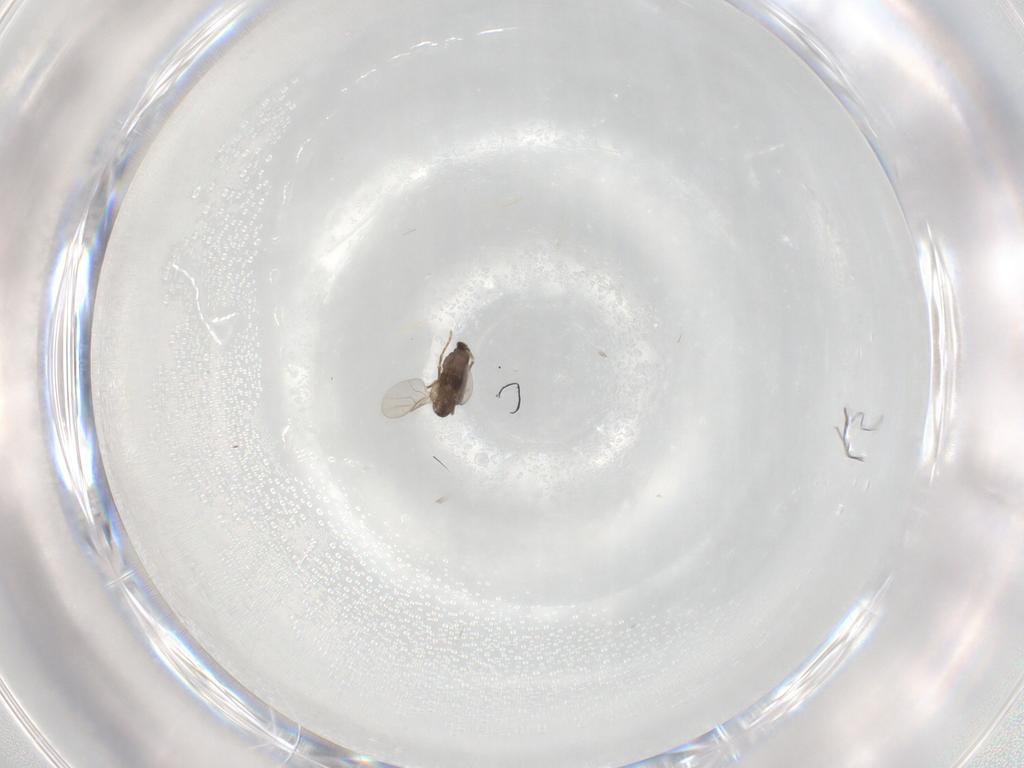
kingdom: Animalia
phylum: Arthropoda
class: Insecta
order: Diptera
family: Phoridae
